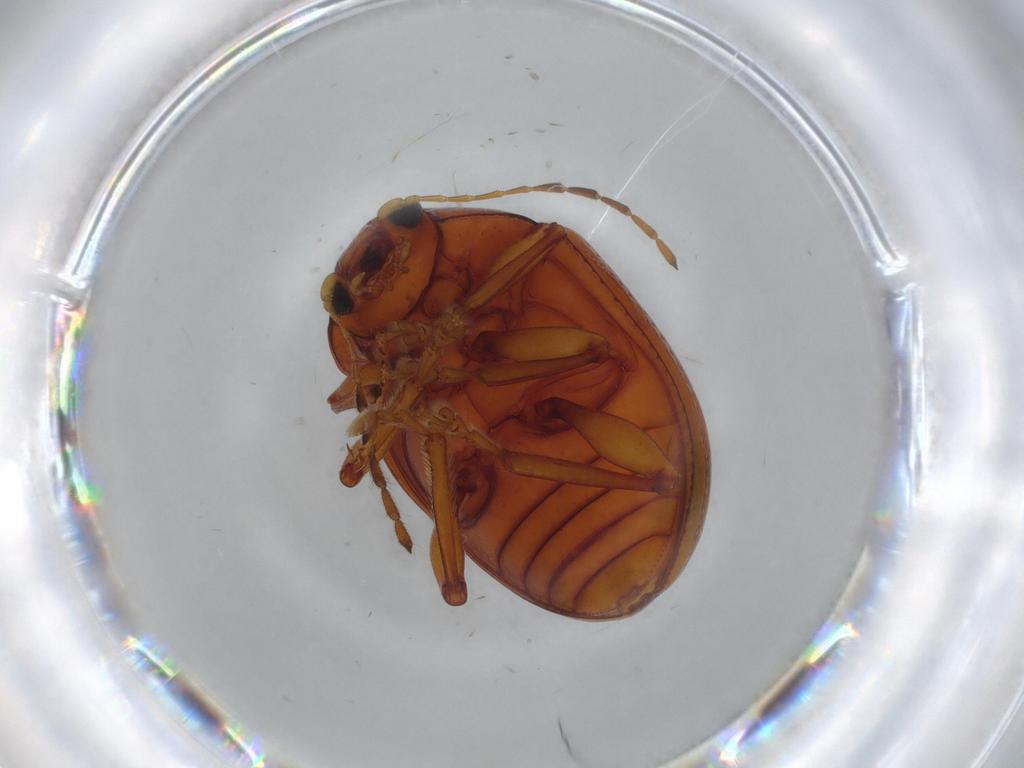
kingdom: Animalia
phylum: Arthropoda
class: Insecta
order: Coleoptera
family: Chrysomelidae
